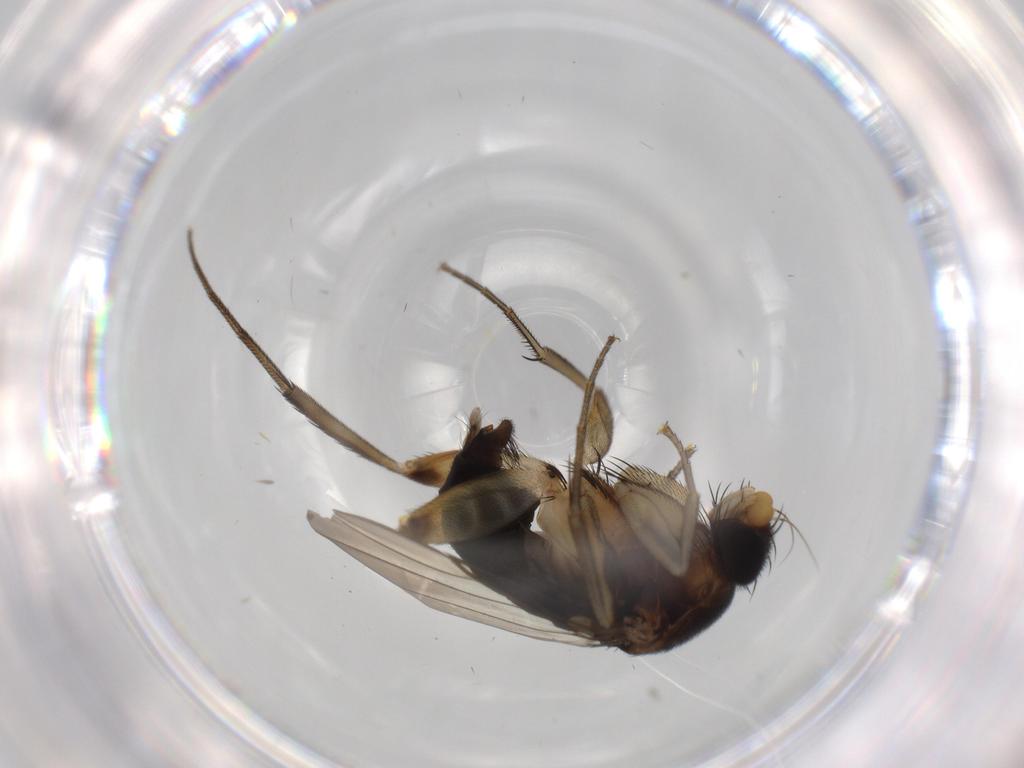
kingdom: Animalia
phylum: Arthropoda
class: Insecta
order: Diptera
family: Phoridae
